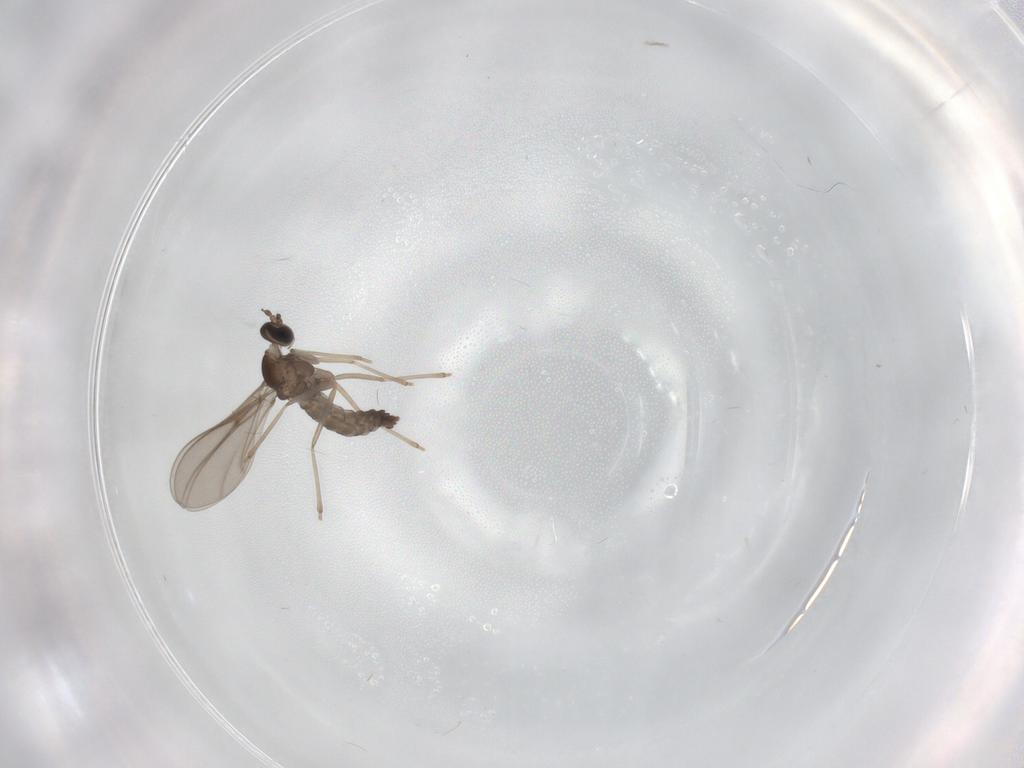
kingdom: Animalia
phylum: Arthropoda
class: Insecta
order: Diptera
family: Cecidomyiidae
